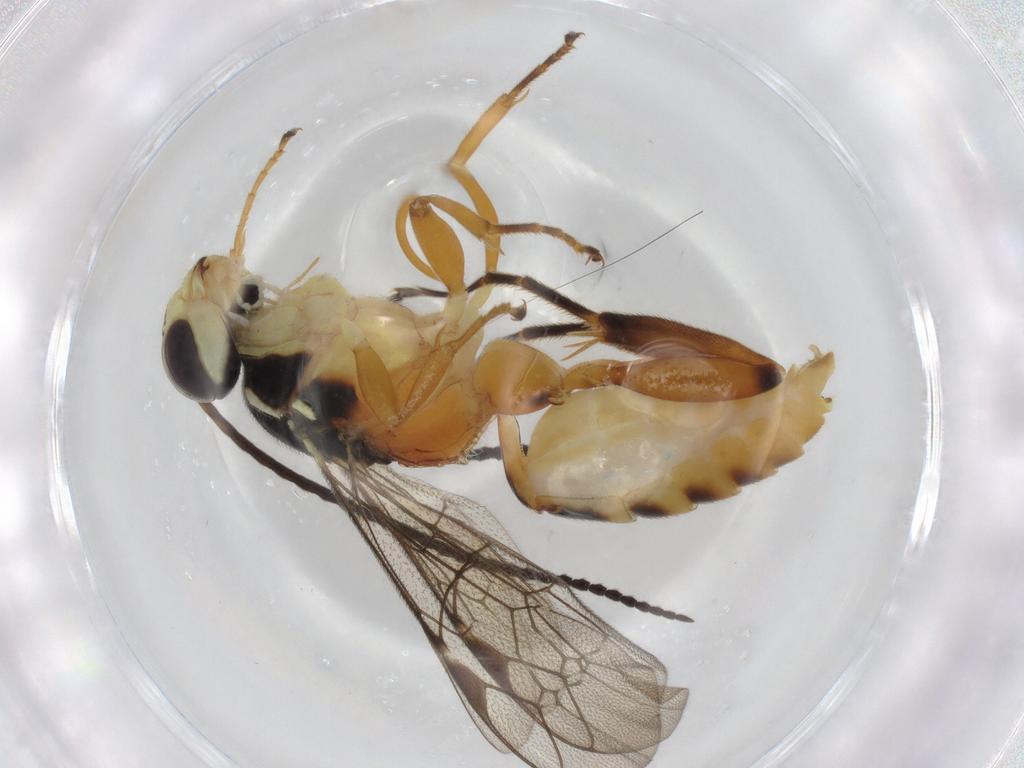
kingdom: Animalia
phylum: Arthropoda
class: Insecta
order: Hymenoptera
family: Ichneumonidae
